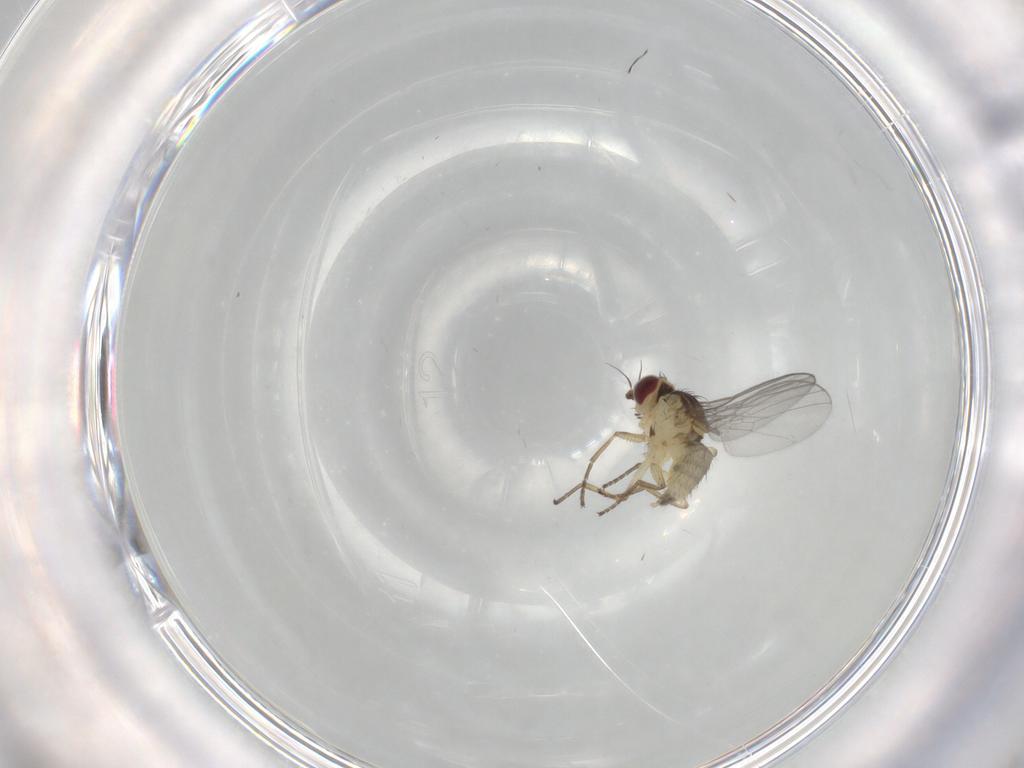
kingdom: Animalia
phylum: Arthropoda
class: Insecta
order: Diptera
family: Agromyzidae
